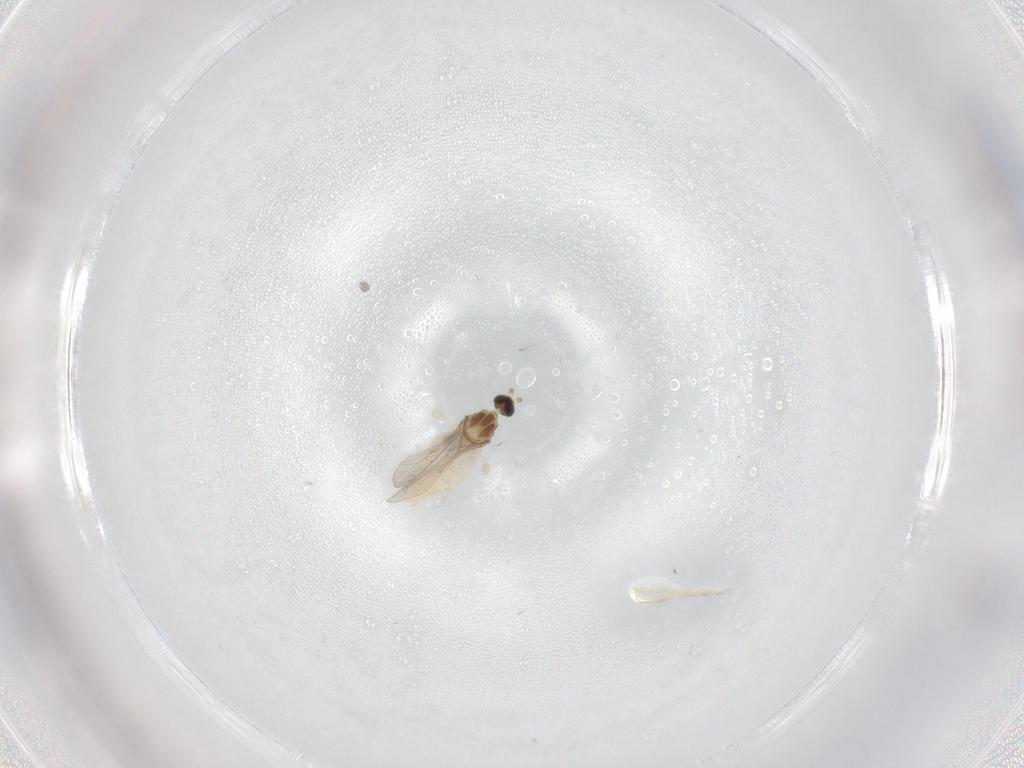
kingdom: Animalia
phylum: Arthropoda
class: Insecta
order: Diptera
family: Cecidomyiidae
